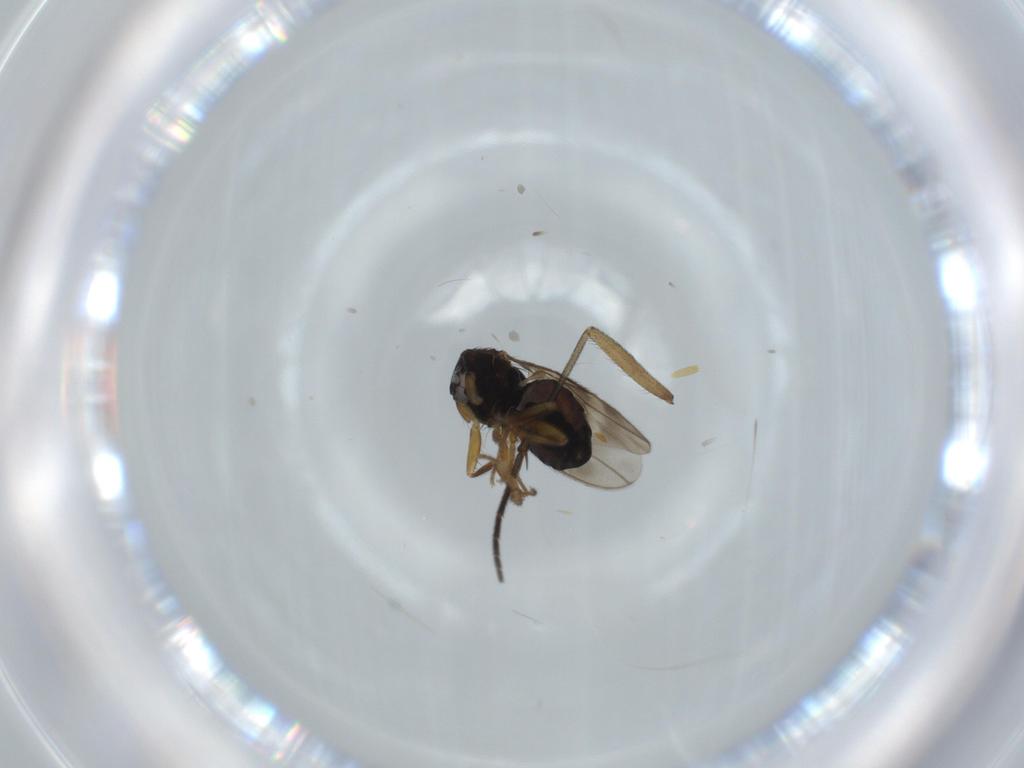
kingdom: Animalia
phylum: Arthropoda
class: Insecta
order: Diptera
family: Sphaeroceridae
